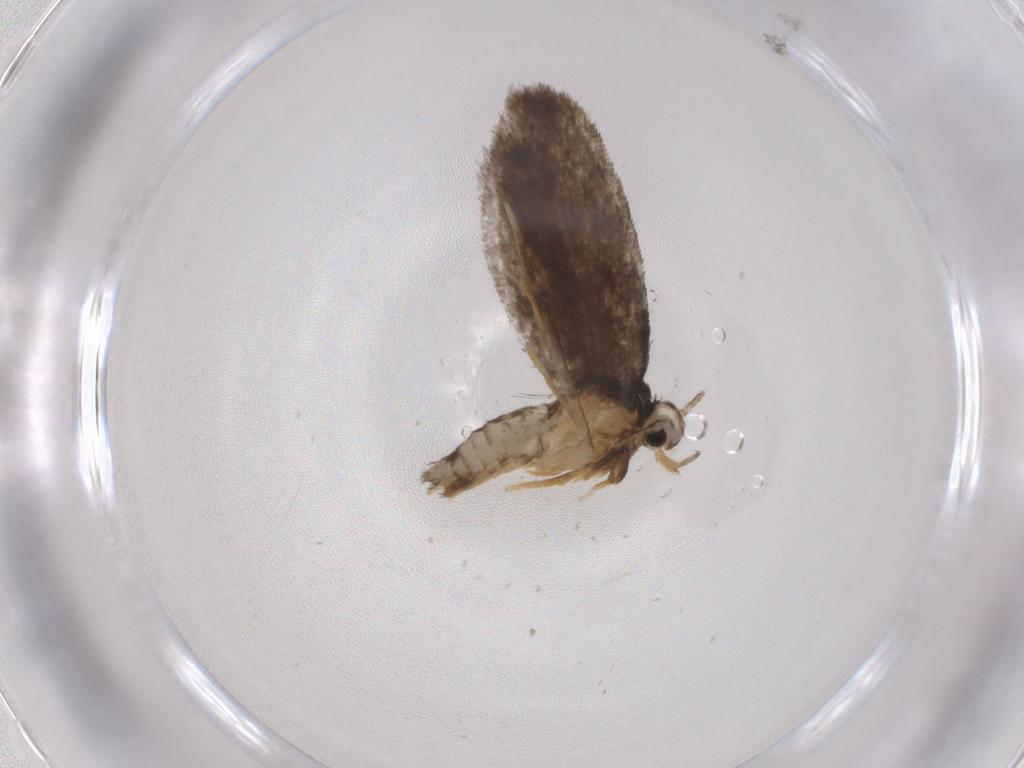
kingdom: Animalia
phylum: Arthropoda
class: Insecta
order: Lepidoptera
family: Psychidae
